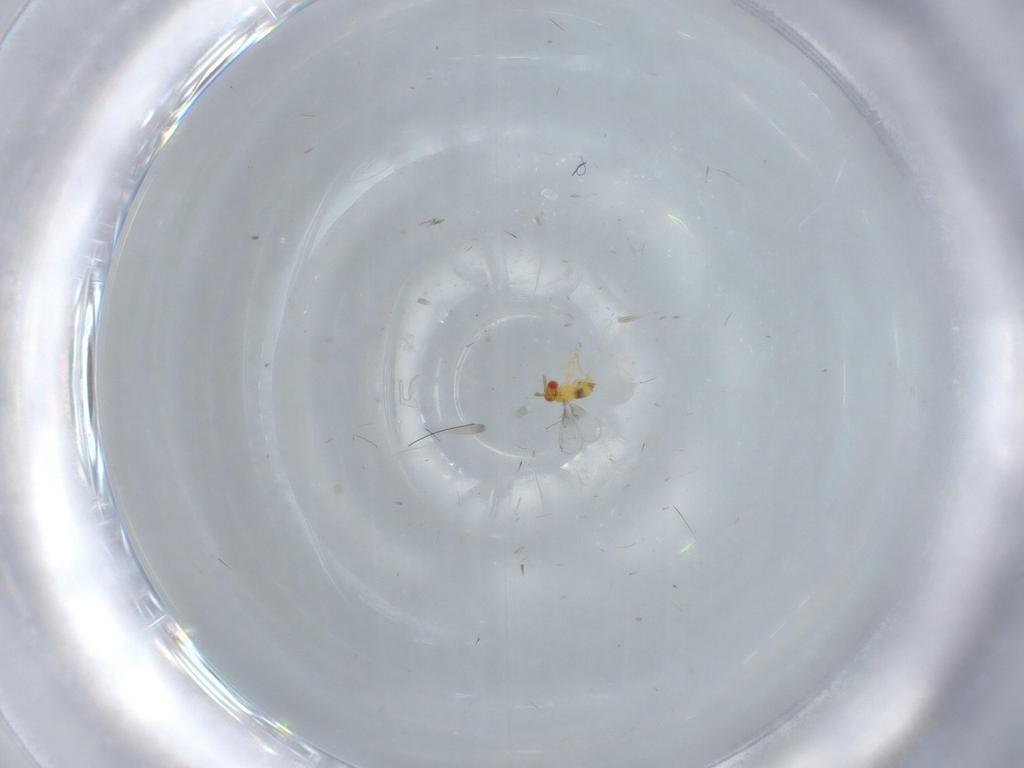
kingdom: Animalia
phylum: Arthropoda
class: Insecta
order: Hymenoptera
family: Trichogrammatidae
